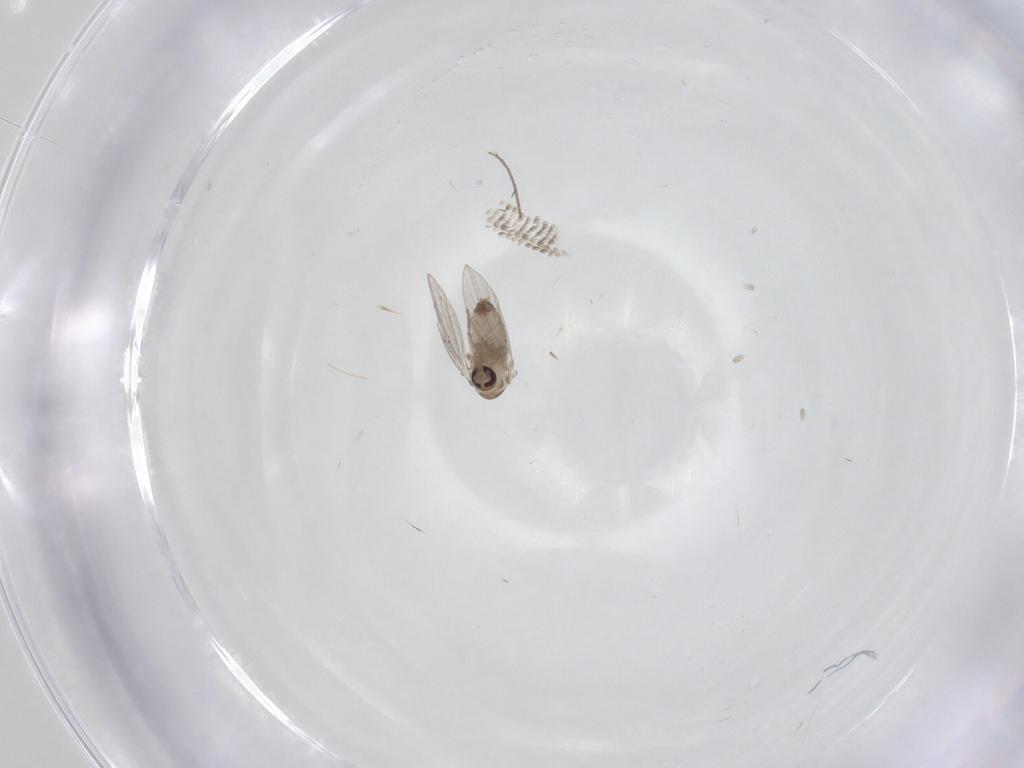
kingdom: Animalia
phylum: Arthropoda
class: Insecta
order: Diptera
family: Psychodidae
